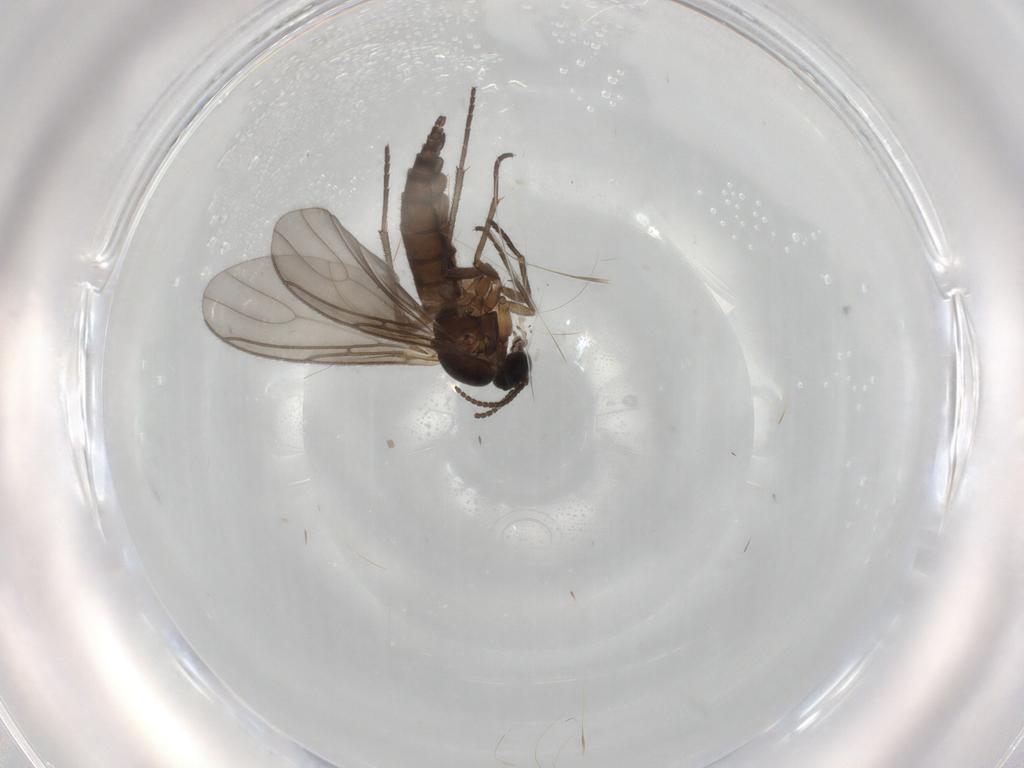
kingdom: Animalia
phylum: Arthropoda
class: Insecta
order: Diptera
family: Sciaridae
